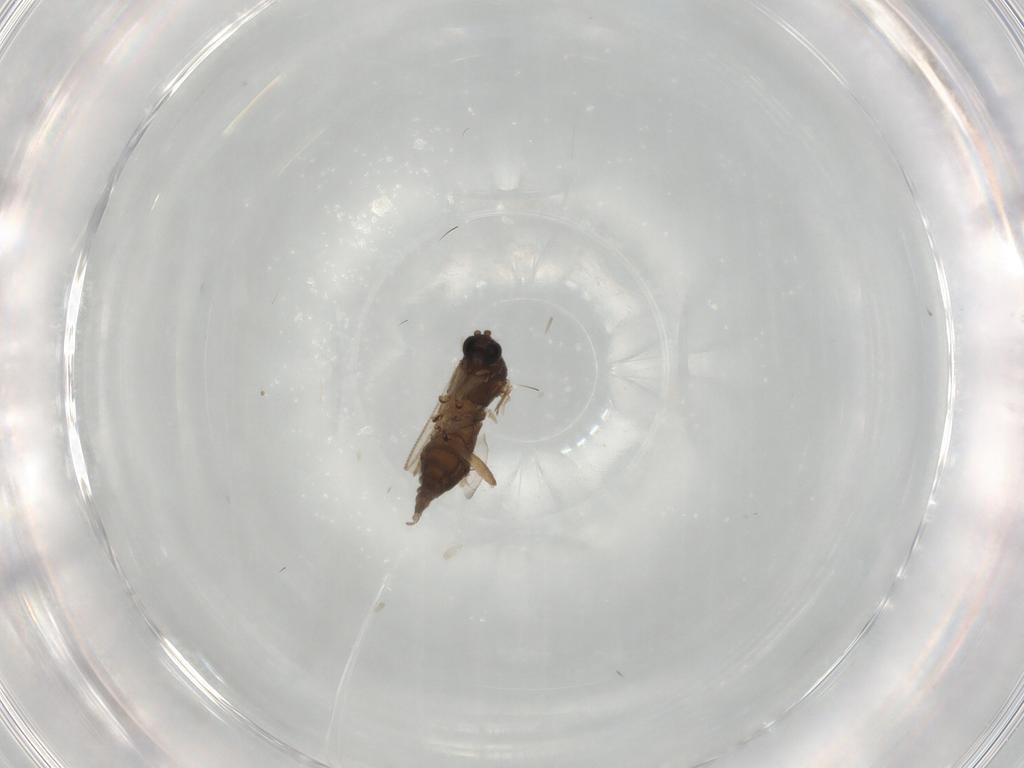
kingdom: Animalia
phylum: Arthropoda
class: Insecta
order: Diptera
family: Sciaridae
